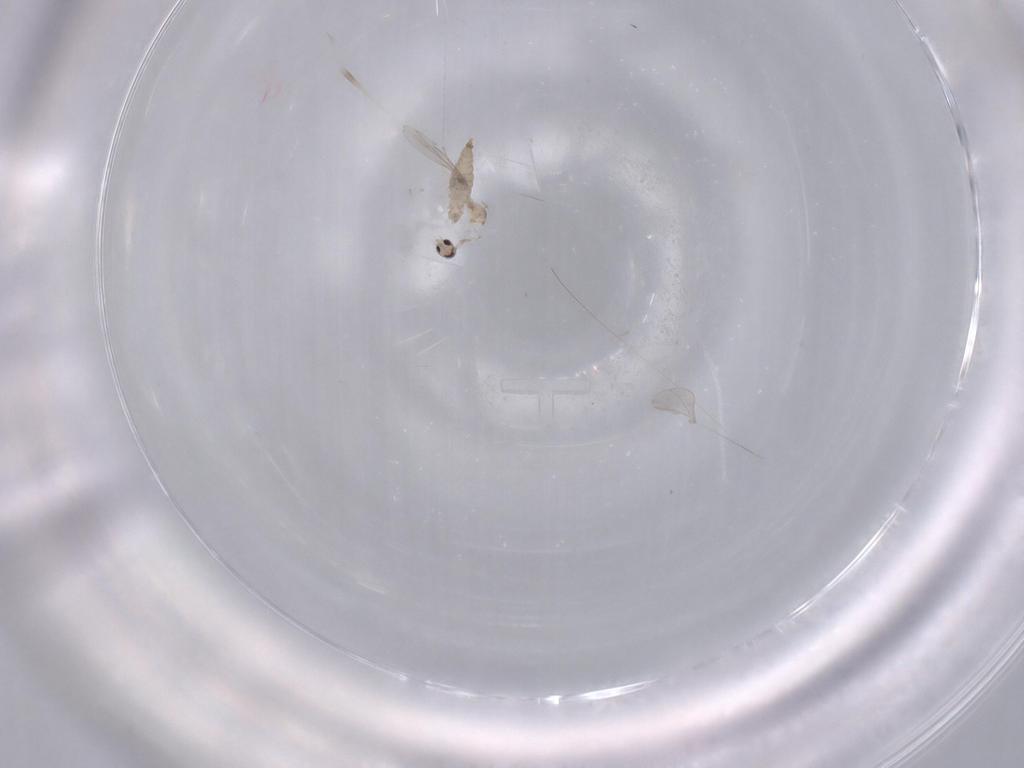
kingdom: Animalia
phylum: Arthropoda
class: Insecta
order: Diptera
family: Cecidomyiidae
